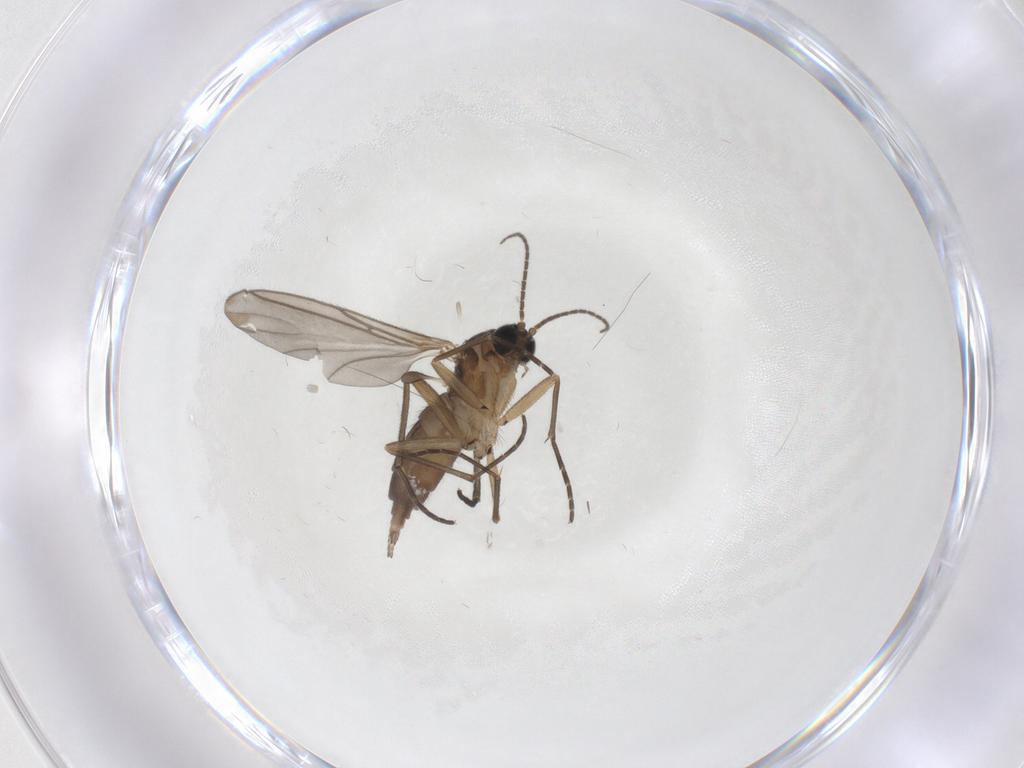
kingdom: Animalia
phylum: Arthropoda
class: Insecta
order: Diptera
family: Sciaridae
